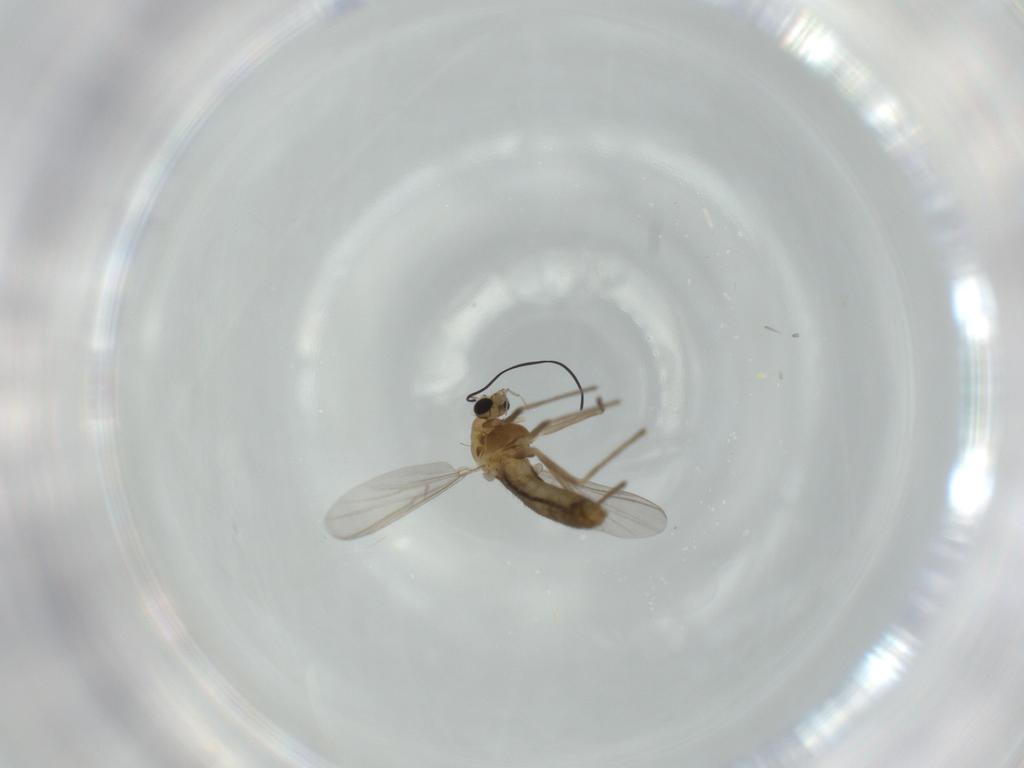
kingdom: Animalia
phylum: Arthropoda
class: Insecta
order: Diptera
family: Chironomidae
